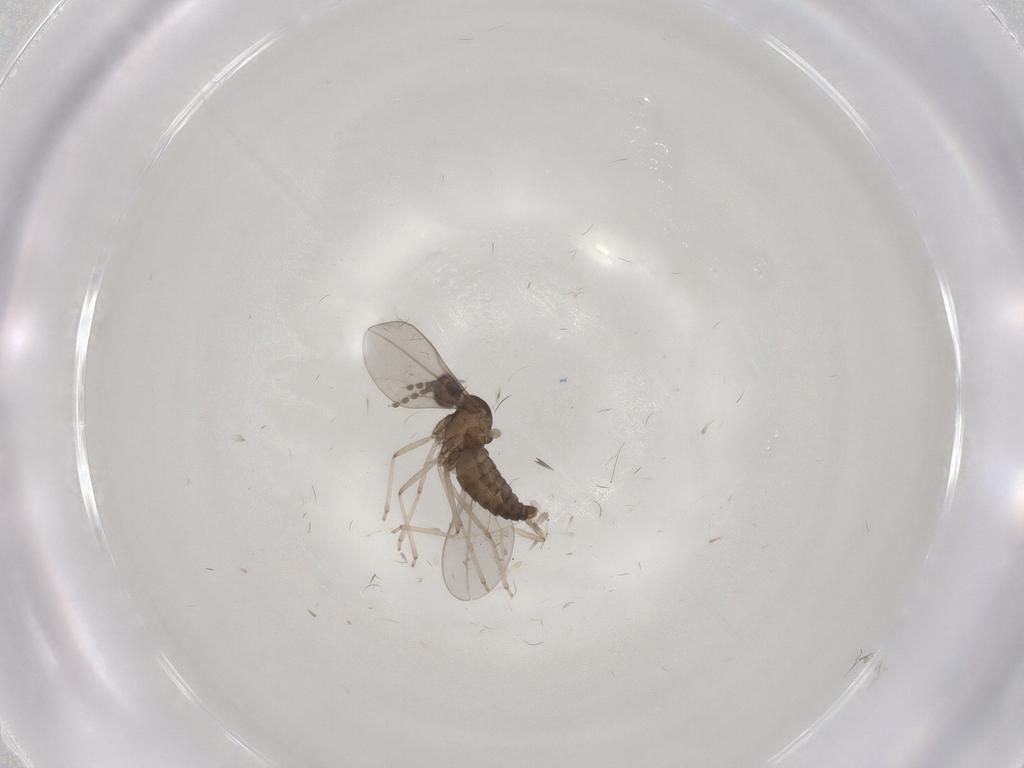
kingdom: Animalia
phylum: Arthropoda
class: Insecta
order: Diptera
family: Cecidomyiidae
